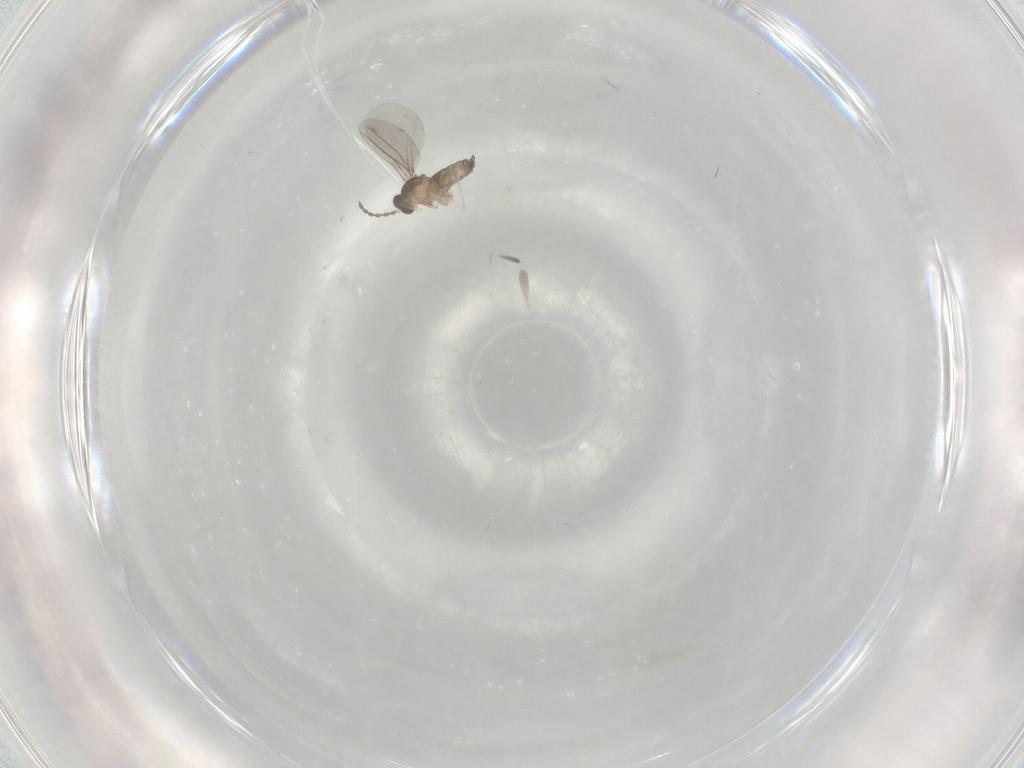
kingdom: Animalia
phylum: Arthropoda
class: Insecta
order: Diptera
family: Cecidomyiidae
